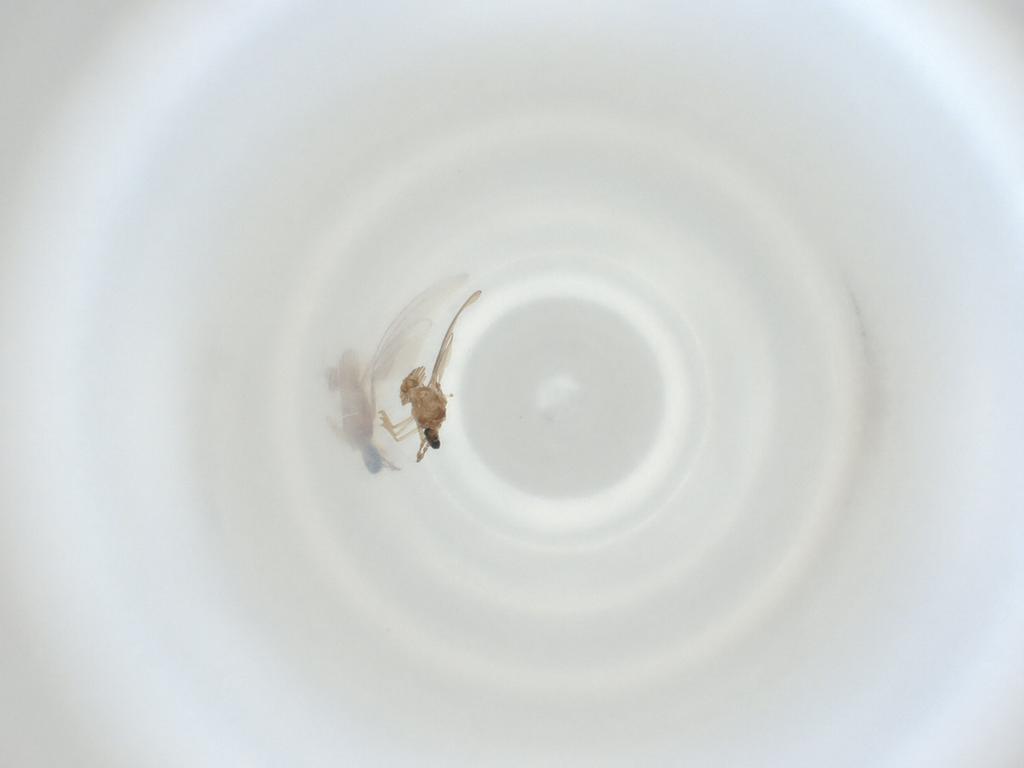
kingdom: Animalia
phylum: Arthropoda
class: Insecta
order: Diptera
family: Cecidomyiidae
